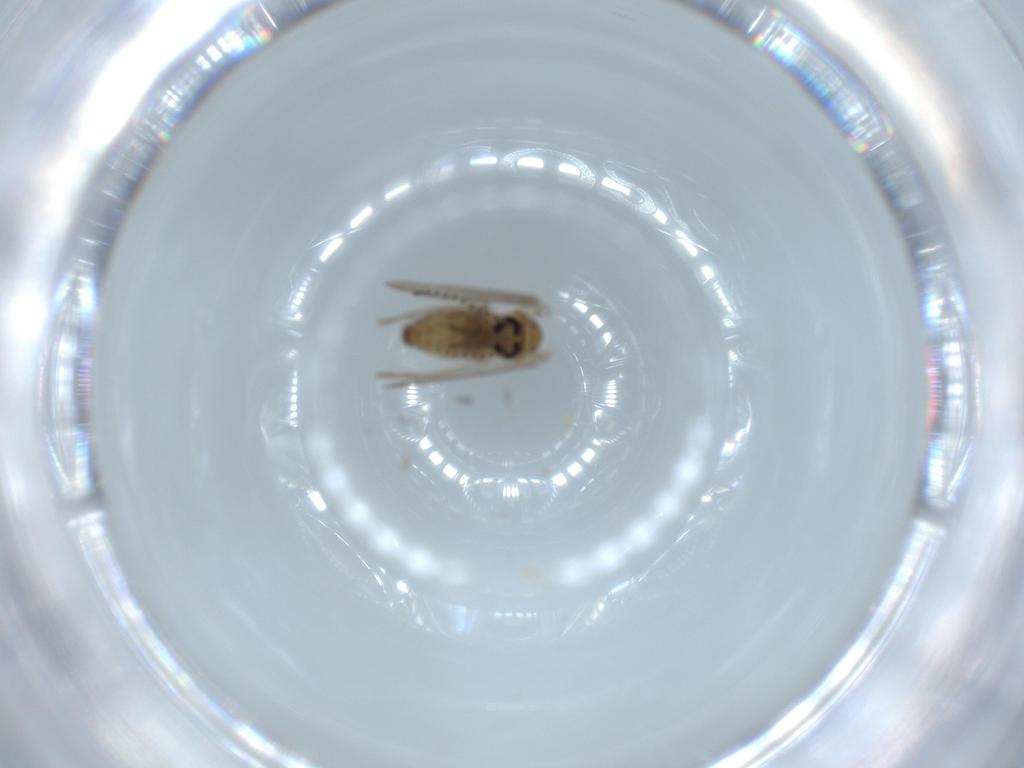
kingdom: Animalia
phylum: Arthropoda
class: Insecta
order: Diptera
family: Psychodidae
